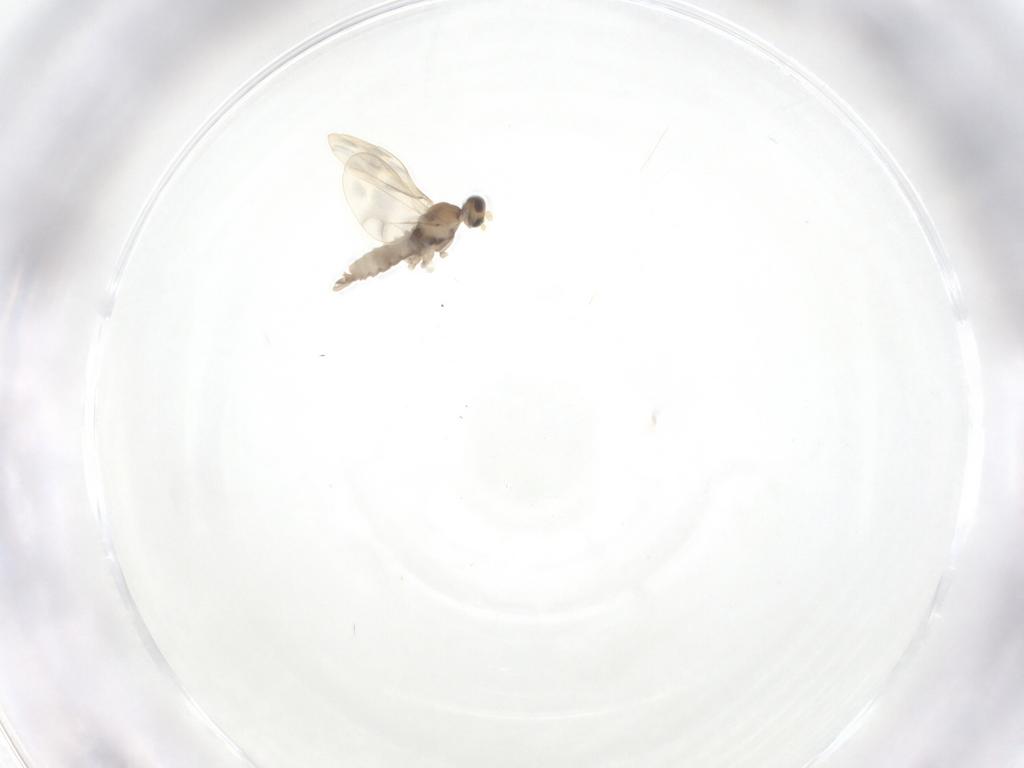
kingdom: Animalia
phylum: Arthropoda
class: Insecta
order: Diptera
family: Cecidomyiidae
